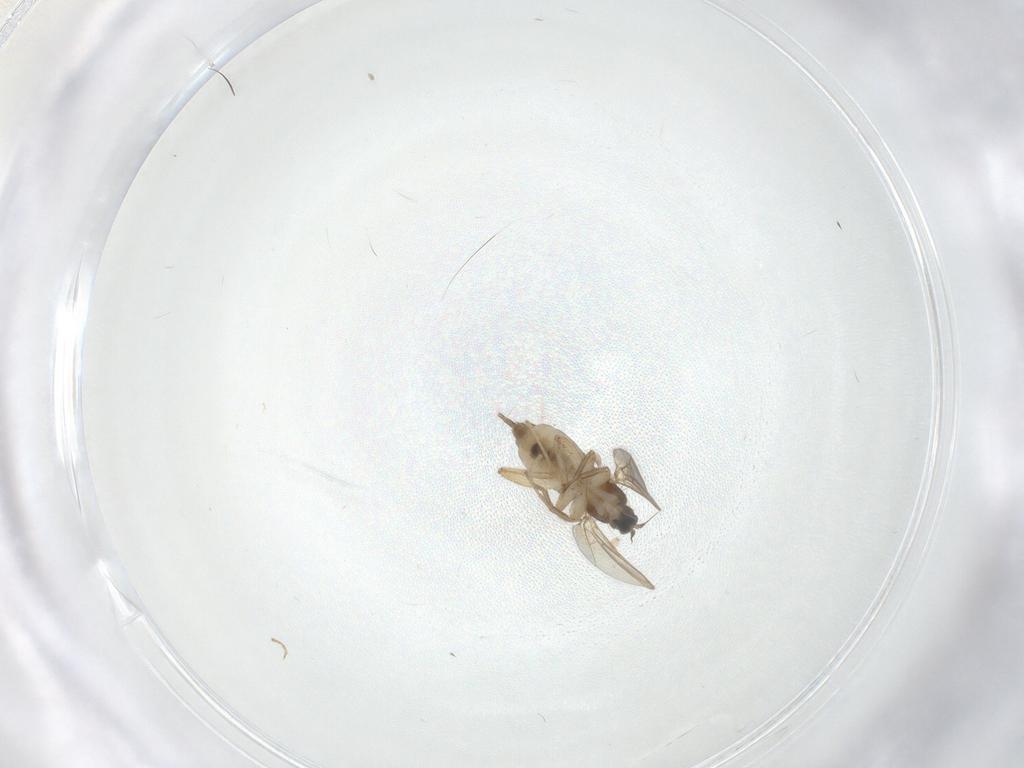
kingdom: Animalia
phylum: Arthropoda
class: Insecta
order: Diptera
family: Hybotidae
